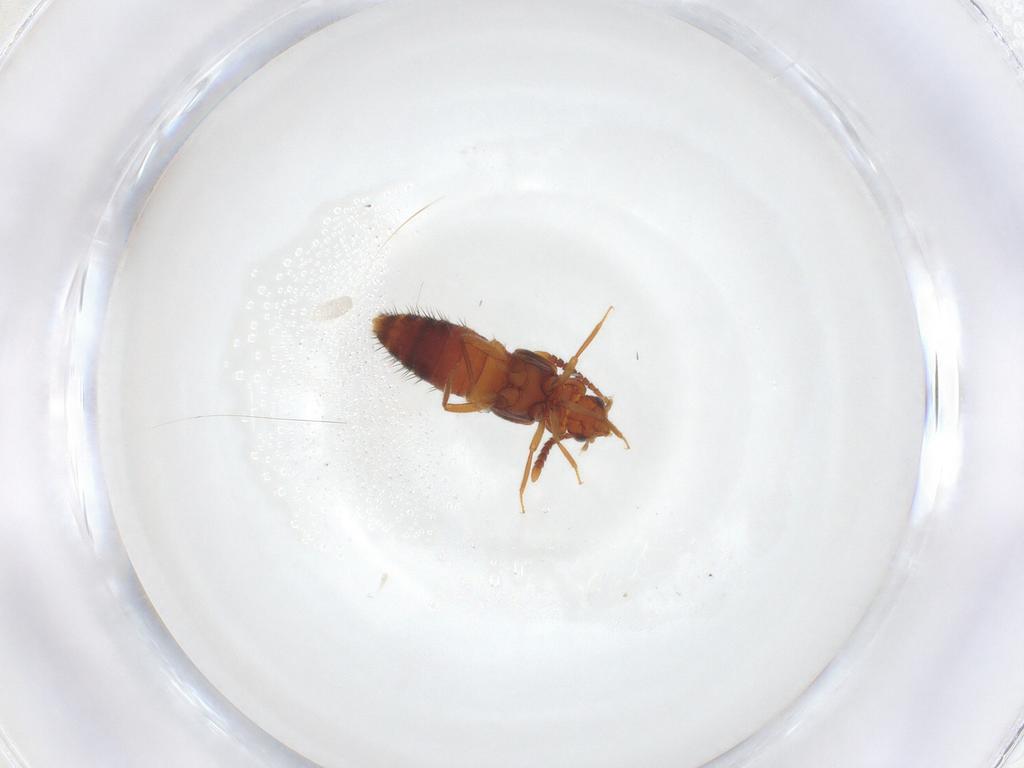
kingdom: Animalia
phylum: Arthropoda
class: Insecta
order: Coleoptera
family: Staphylinidae
